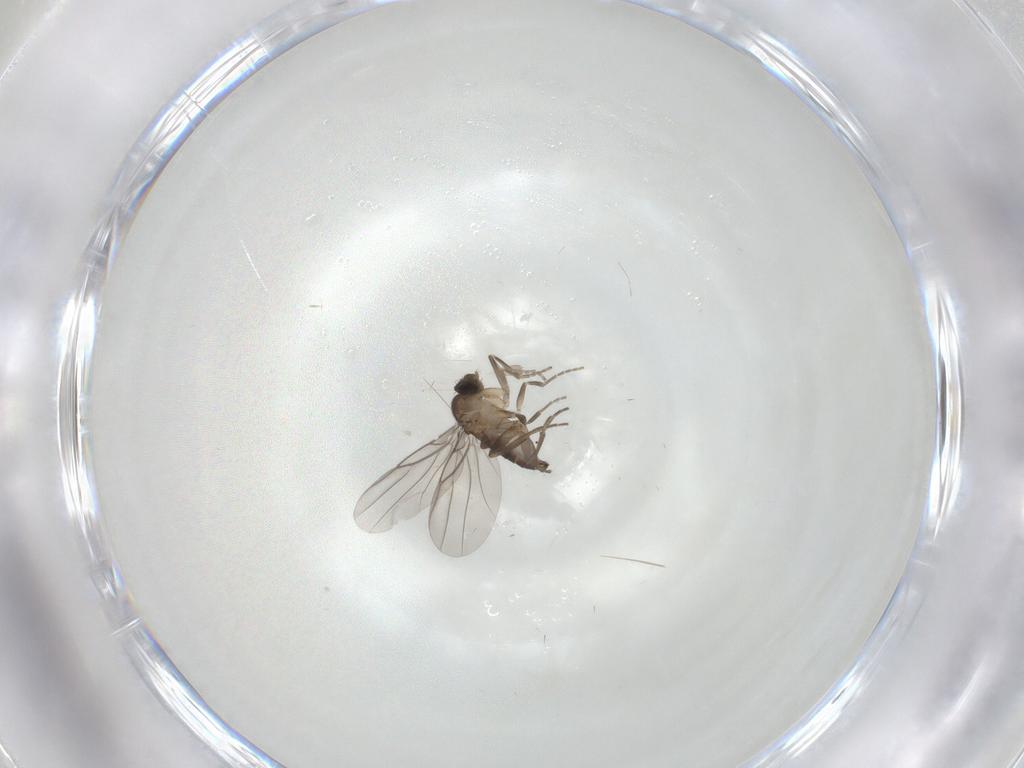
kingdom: Animalia
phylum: Arthropoda
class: Insecta
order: Diptera
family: Phoridae
